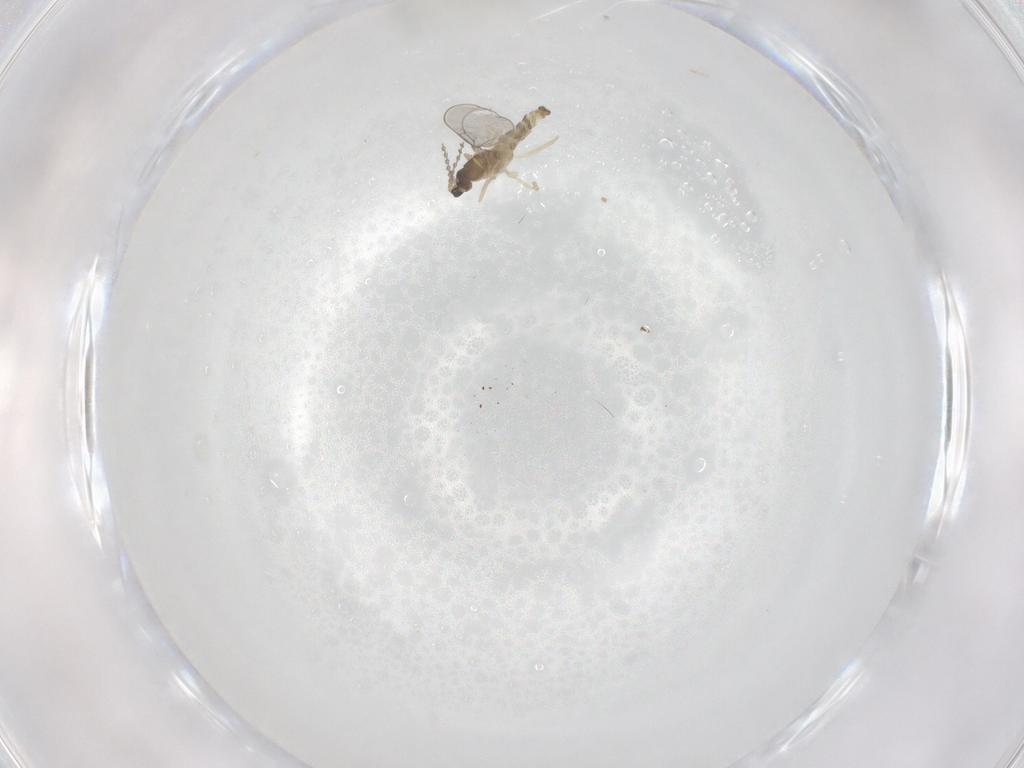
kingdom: Animalia
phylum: Arthropoda
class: Insecta
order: Diptera
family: Cecidomyiidae
